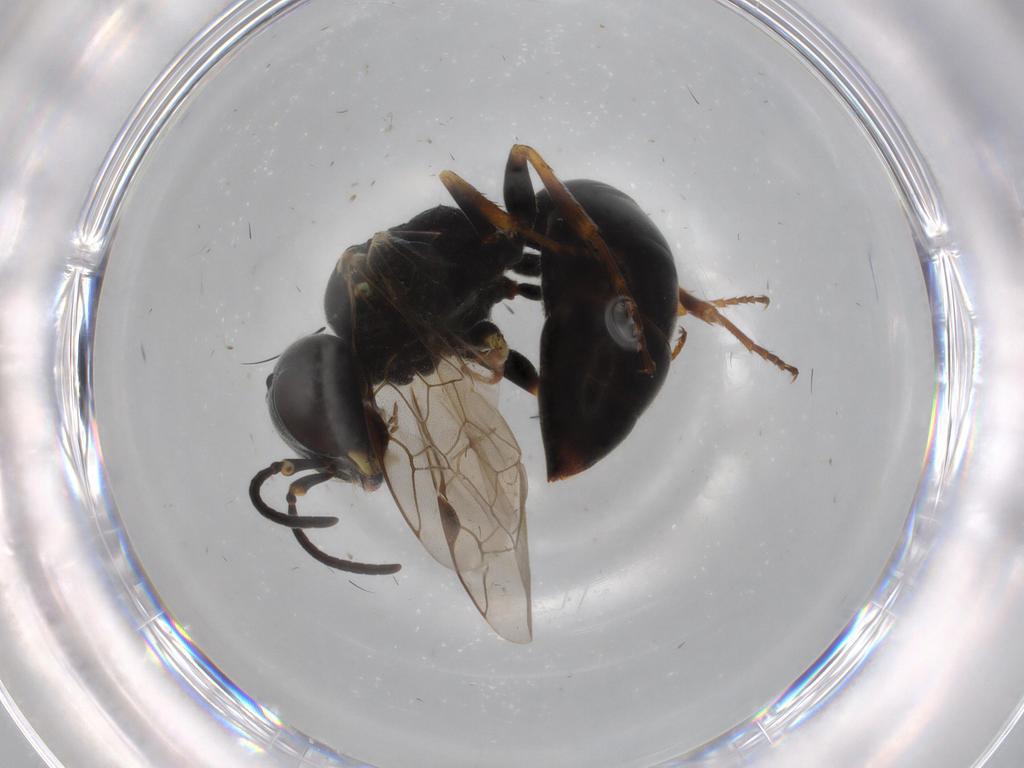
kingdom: Animalia
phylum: Arthropoda
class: Insecta
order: Hymenoptera
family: Crabronidae
